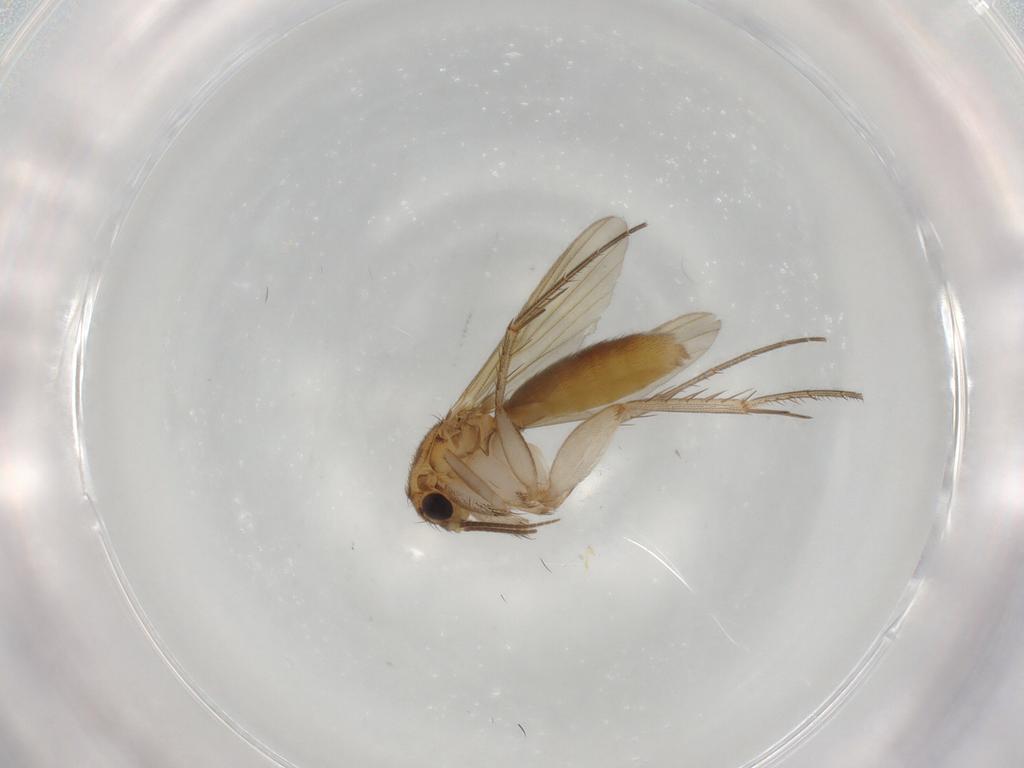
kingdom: Animalia
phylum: Arthropoda
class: Insecta
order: Diptera
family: Mycetophilidae
